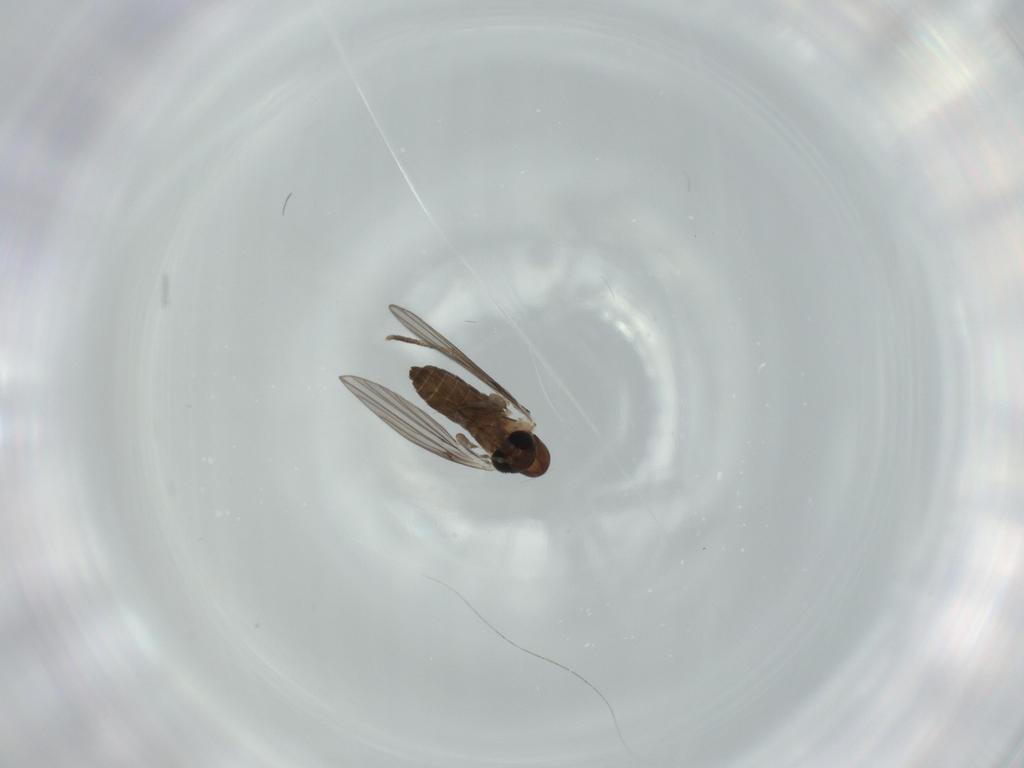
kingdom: Animalia
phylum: Arthropoda
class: Insecta
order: Diptera
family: Psychodidae
